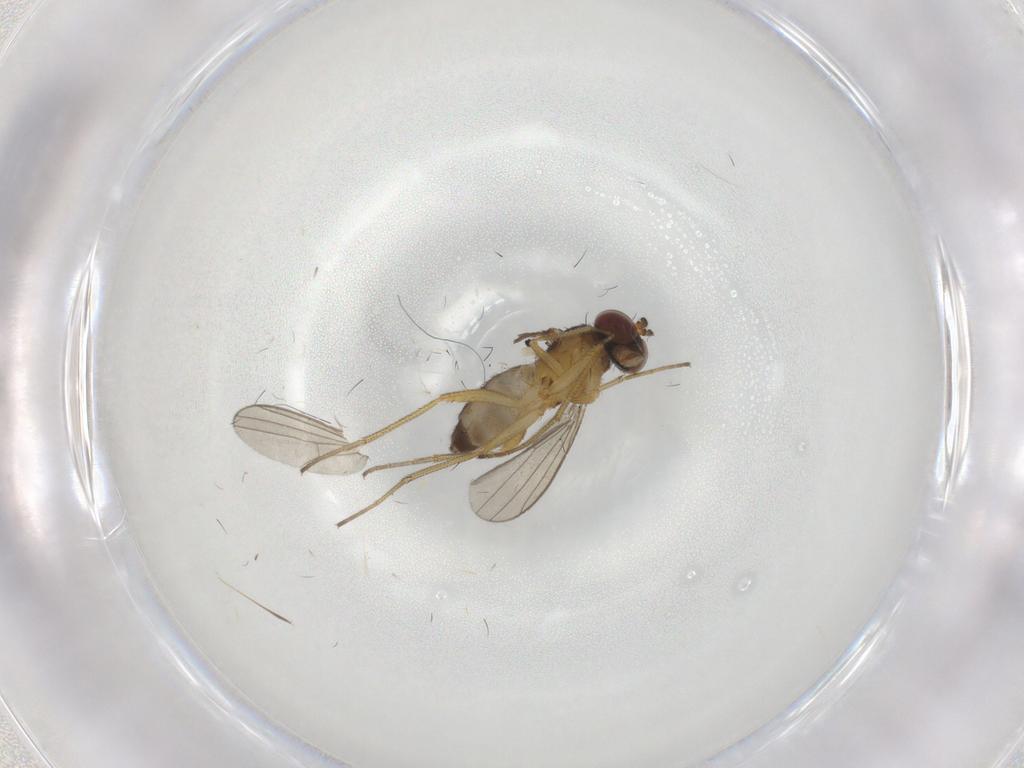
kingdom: Animalia
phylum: Arthropoda
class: Insecta
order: Diptera
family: Dolichopodidae
